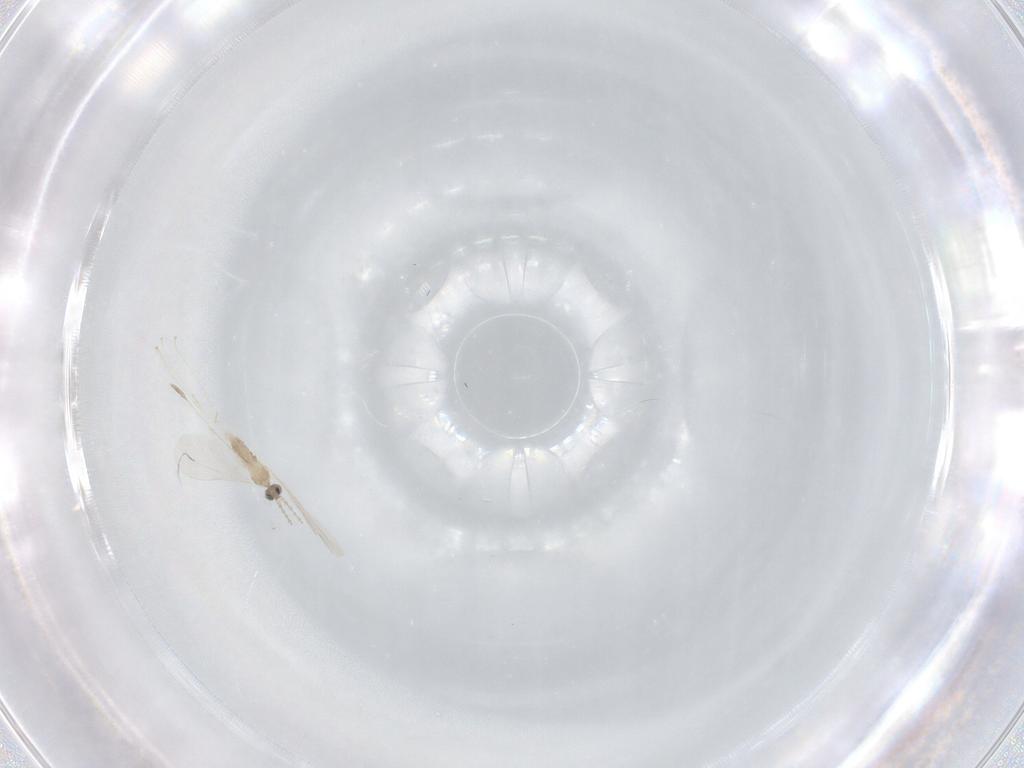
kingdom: Animalia
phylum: Arthropoda
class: Insecta
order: Diptera
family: Cecidomyiidae
